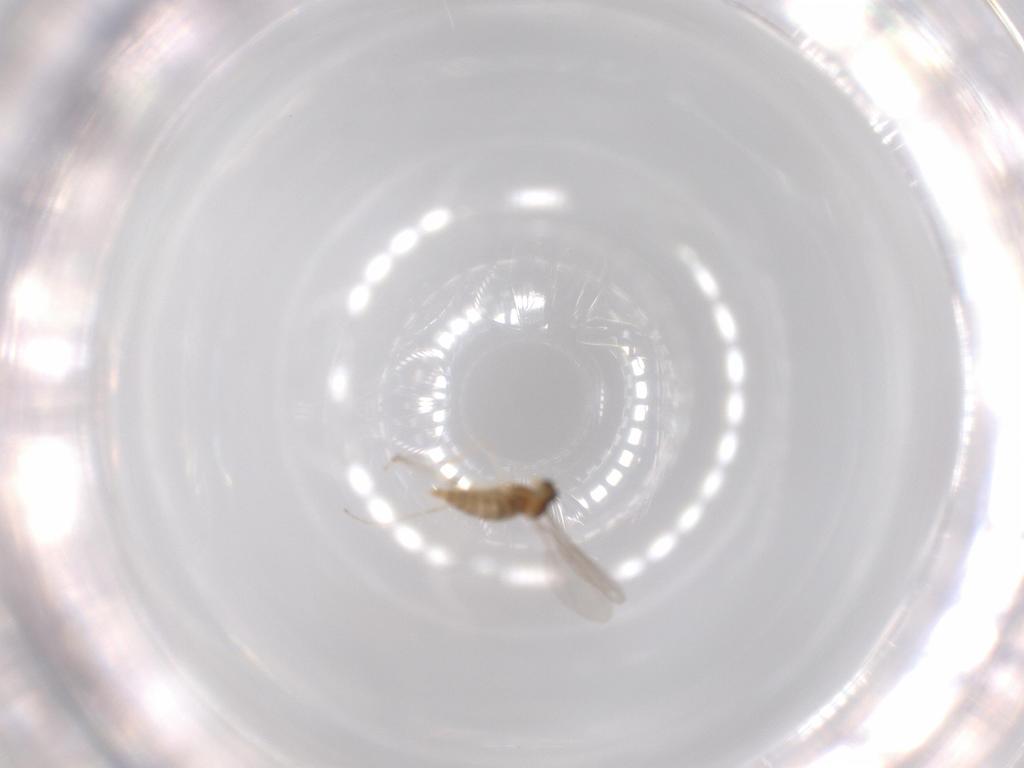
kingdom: Animalia
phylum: Arthropoda
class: Insecta
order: Diptera
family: Cecidomyiidae
